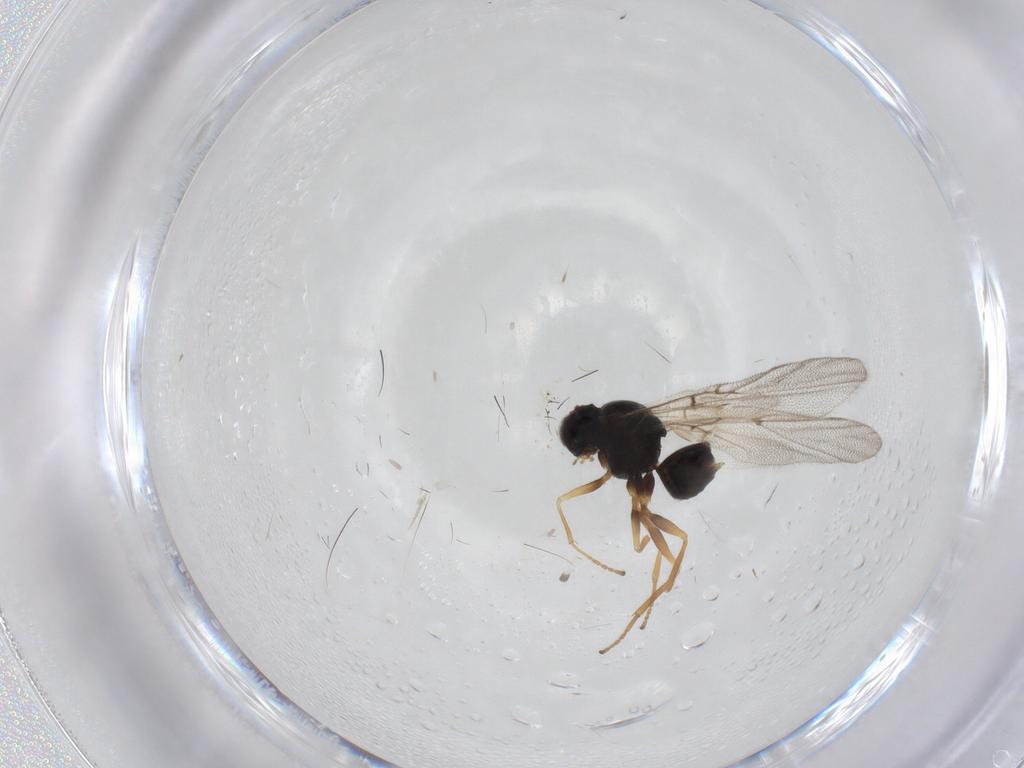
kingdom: Animalia
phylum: Arthropoda
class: Insecta
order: Hymenoptera
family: Cynipidae
